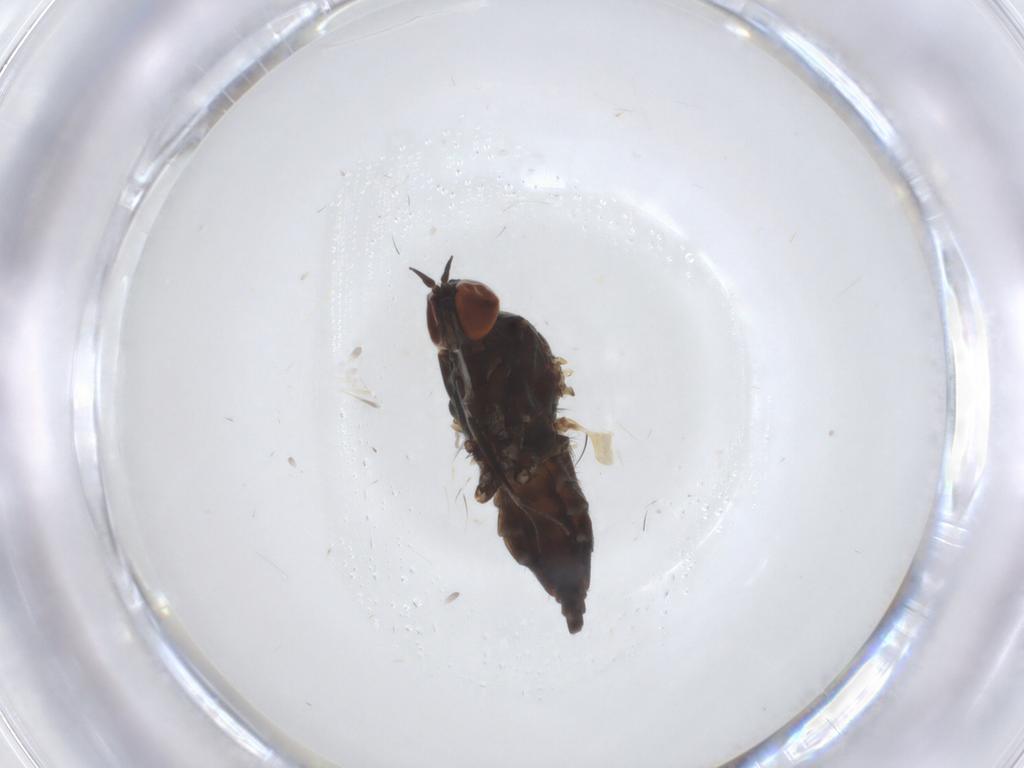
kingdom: Animalia
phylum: Arthropoda
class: Insecta
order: Diptera
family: Empididae
